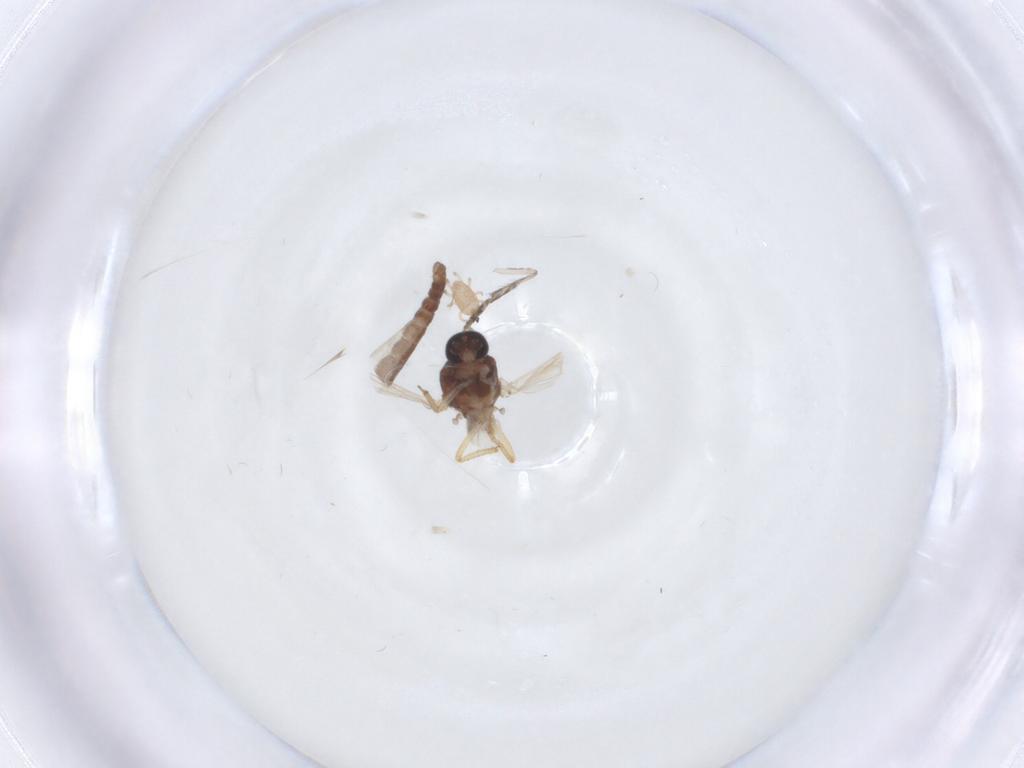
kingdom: Animalia
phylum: Arthropoda
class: Insecta
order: Diptera
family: Ceratopogonidae
